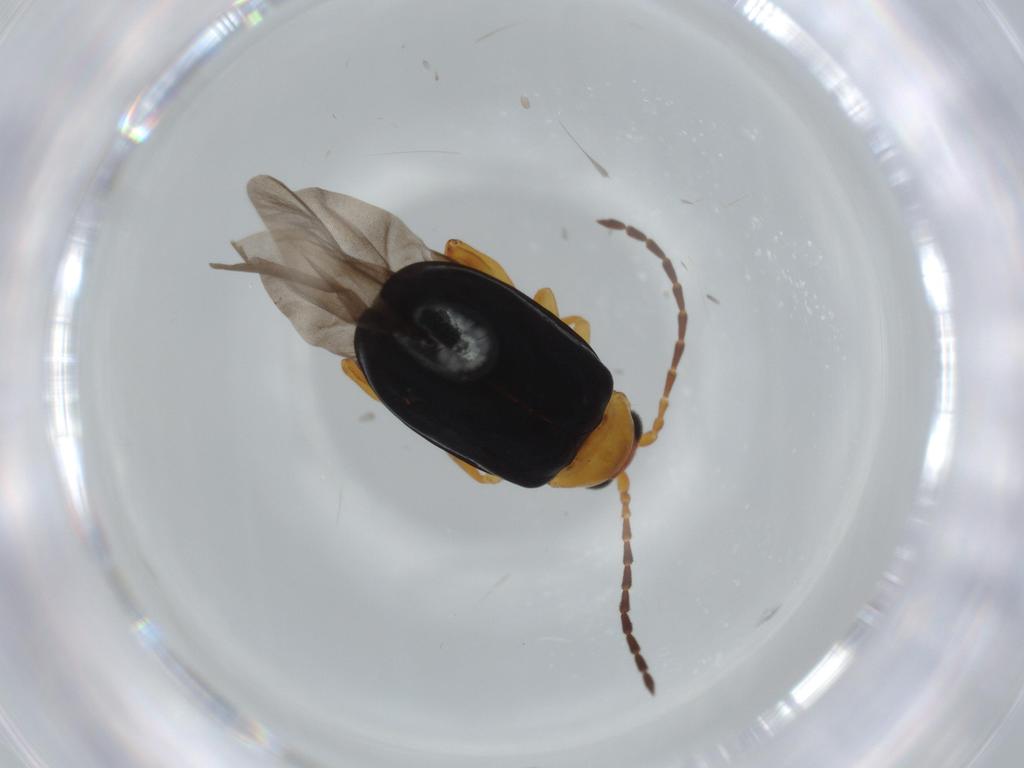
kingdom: Animalia
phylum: Arthropoda
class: Insecta
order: Coleoptera
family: Chrysomelidae
